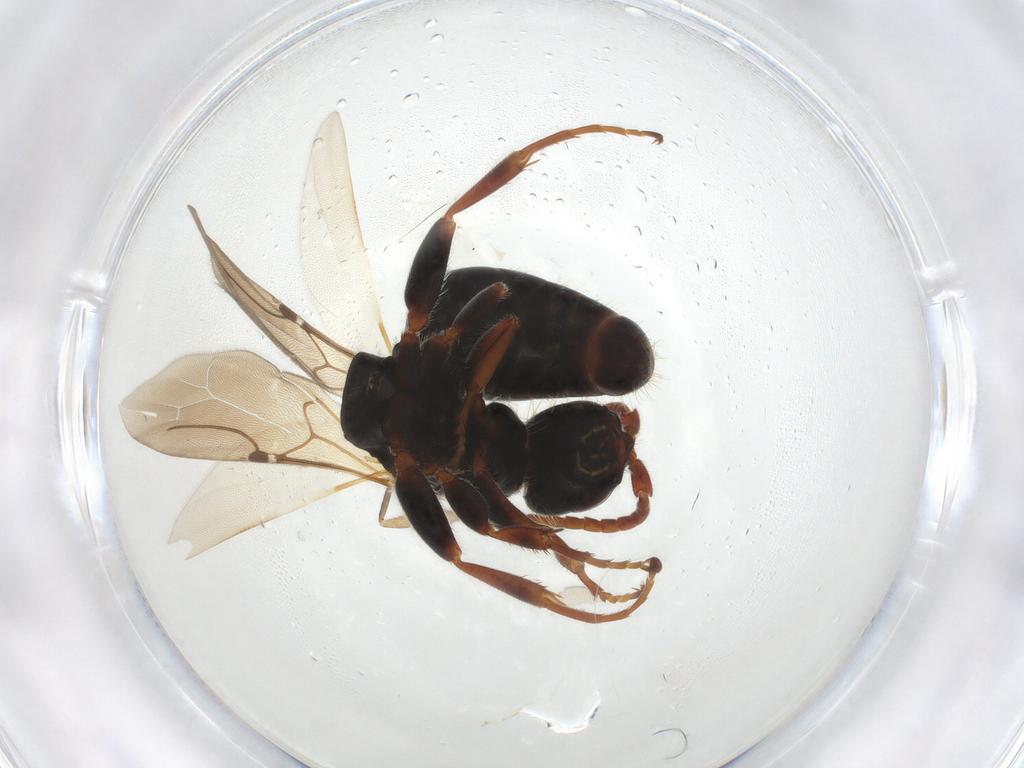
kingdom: Animalia
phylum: Arthropoda
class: Insecta
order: Hymenoptera
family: Bethylidae
